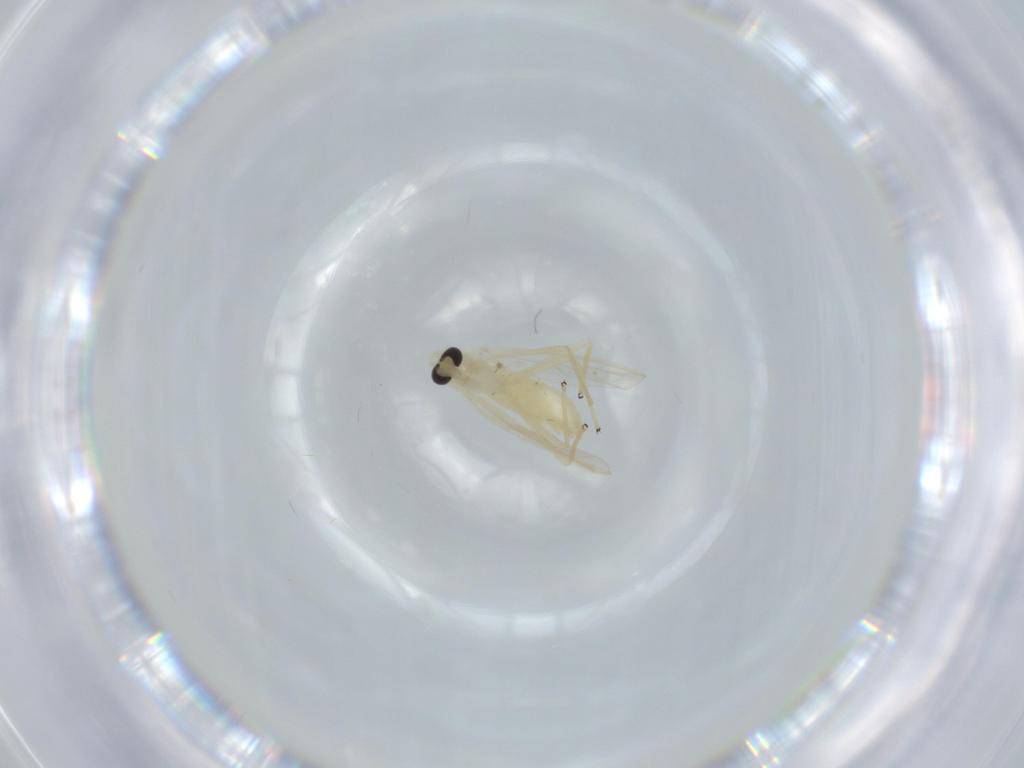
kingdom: Animalia
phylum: Arthropoda
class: Insecta
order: Diptera
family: Chironomidae
